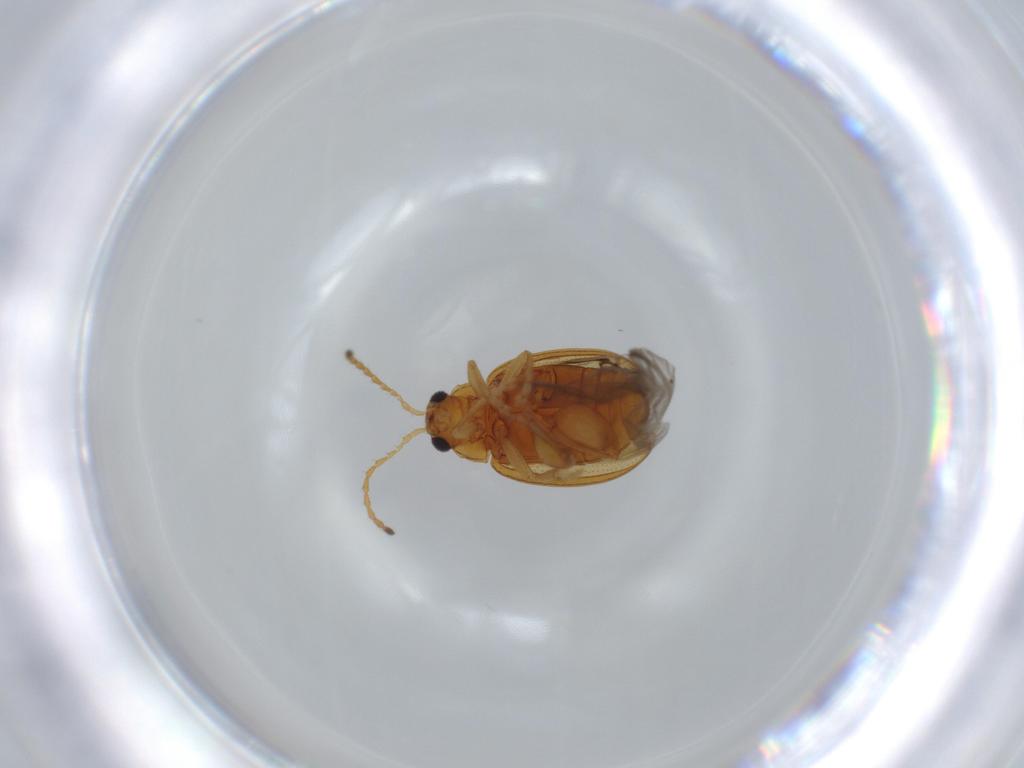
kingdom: Animalia
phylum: Arthropoda
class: Insecta
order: Coleoptera
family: Chrysomelidae
